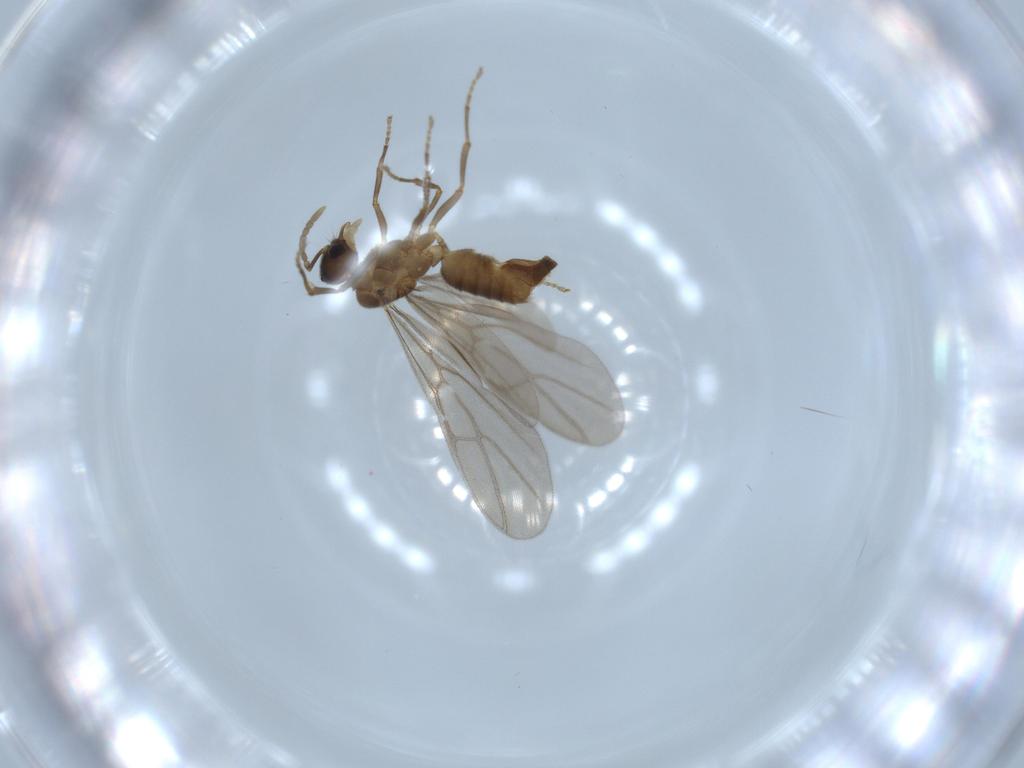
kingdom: Animalia
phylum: Arthropoda
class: Insecta
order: Hymenoptera
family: Formicidae
